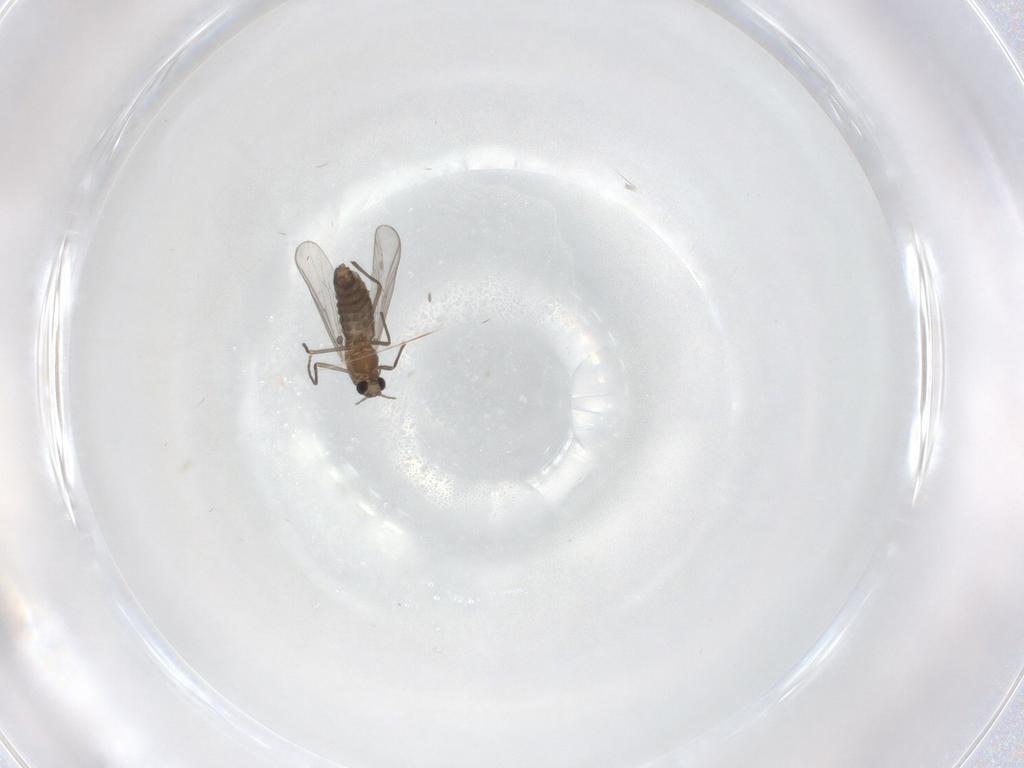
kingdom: Animalia
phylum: Arthropoda
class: Insecta
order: Diptera
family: Chironomidae
